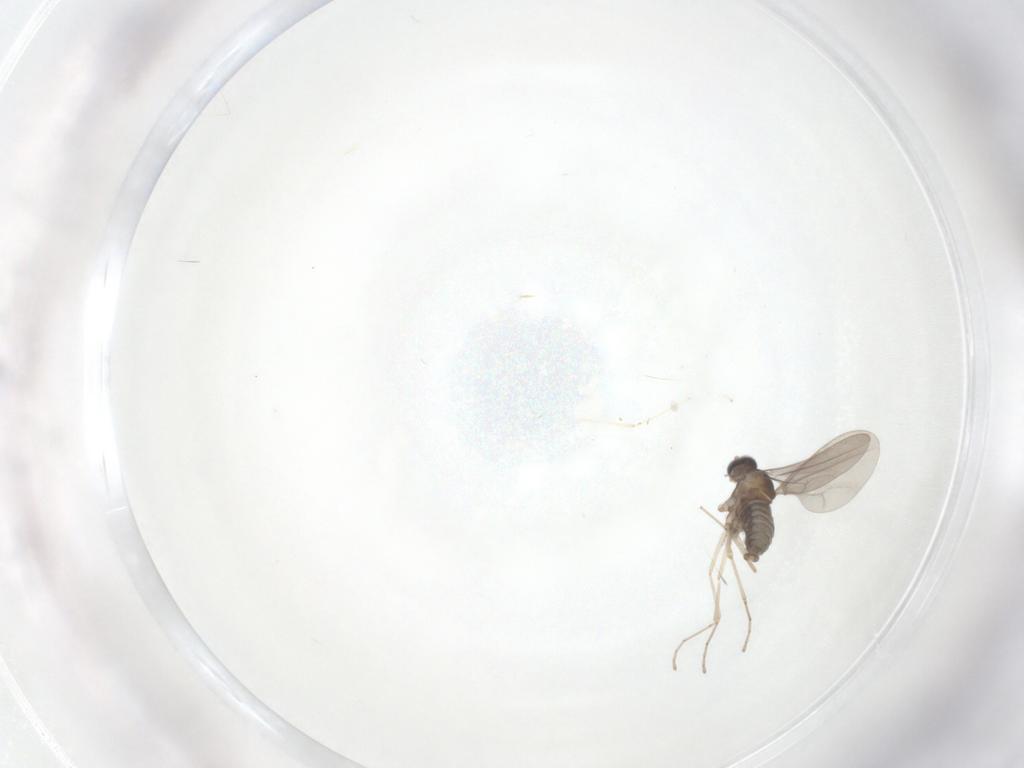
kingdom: Animalia
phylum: Arthropoda
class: Insecta
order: Diptera
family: Cecidomyiidae
